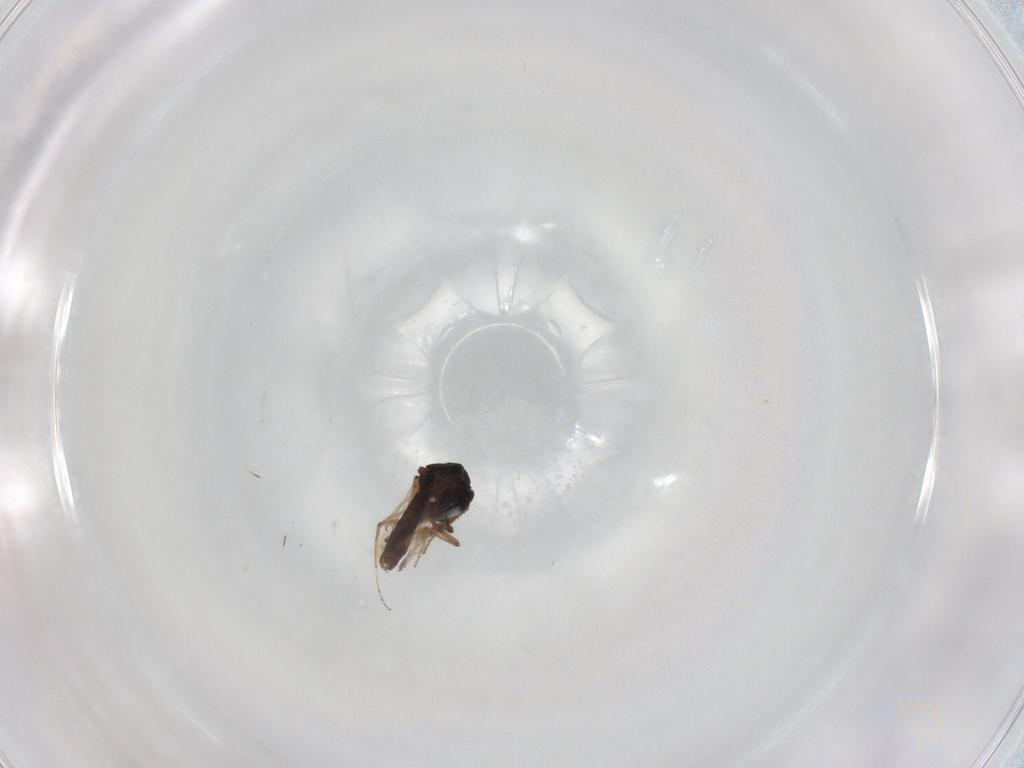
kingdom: Animalia
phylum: Arthropoda
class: Insecta
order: Diptera
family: Ceratopogonidae
